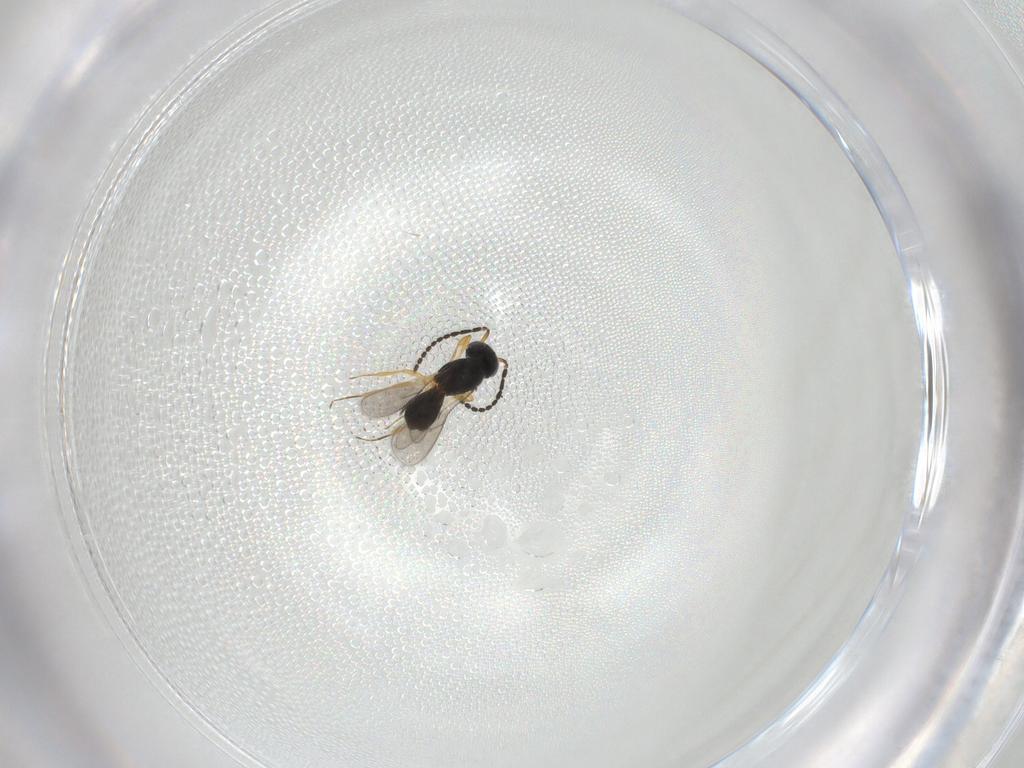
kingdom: Animalia
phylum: Arthropoda
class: Insecta
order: Hymenoptera
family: Scelionidae
